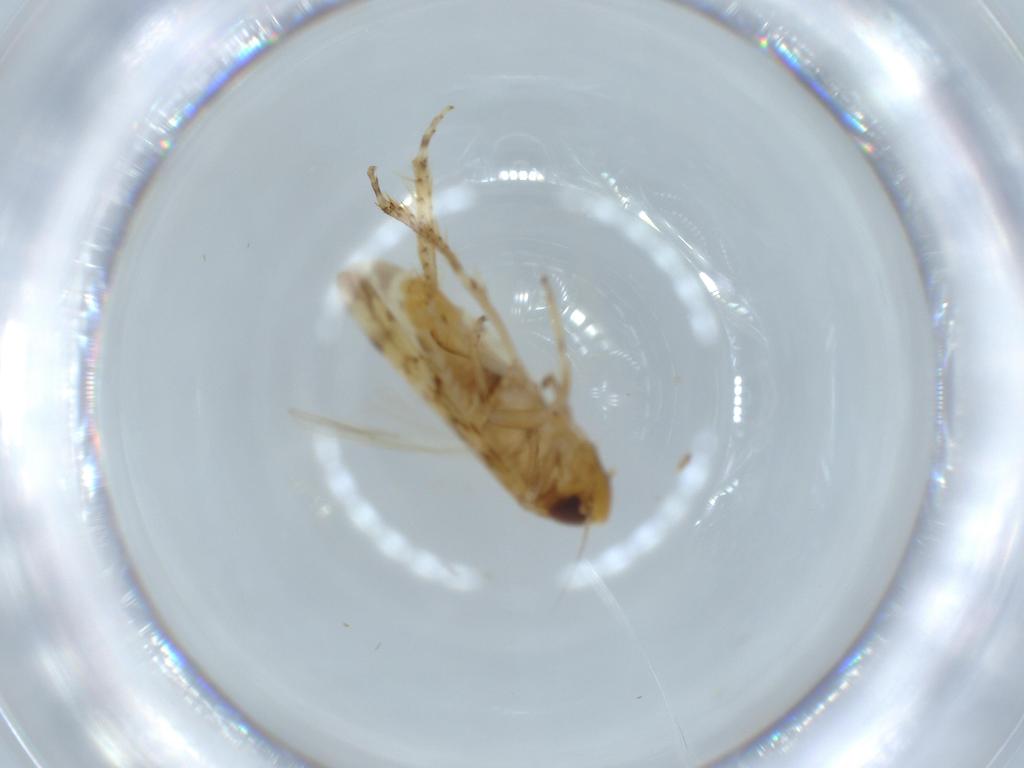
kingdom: Animalia
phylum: Arthropoda
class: Insecta
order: Hemiptera
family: Cicadellidae
